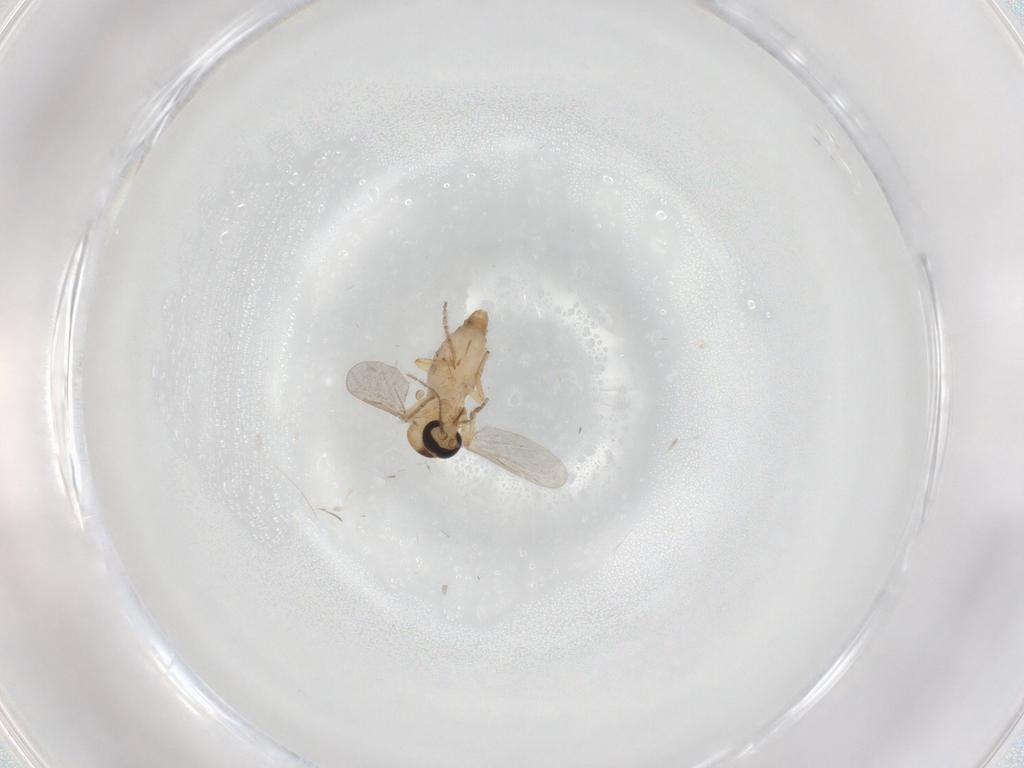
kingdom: Animalia
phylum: Arthropoda
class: Insecta
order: Diptera
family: Ceratopogonidae
